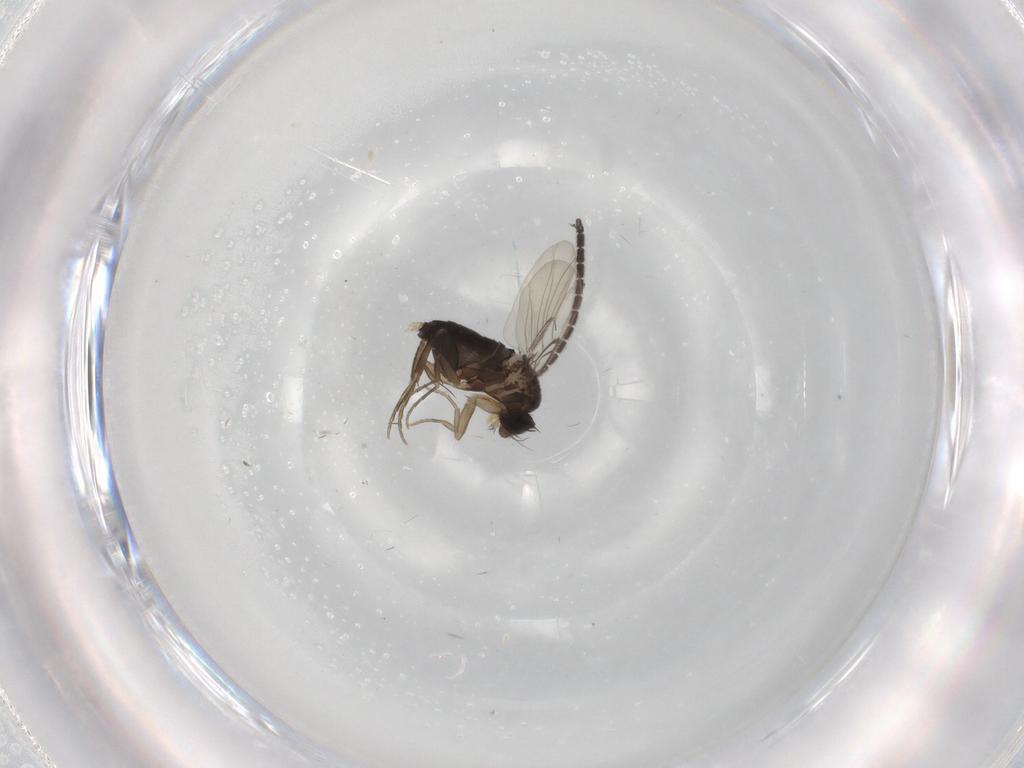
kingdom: Animalia
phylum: Arthropoda
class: Insecta
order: Diptera
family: Phoridae
